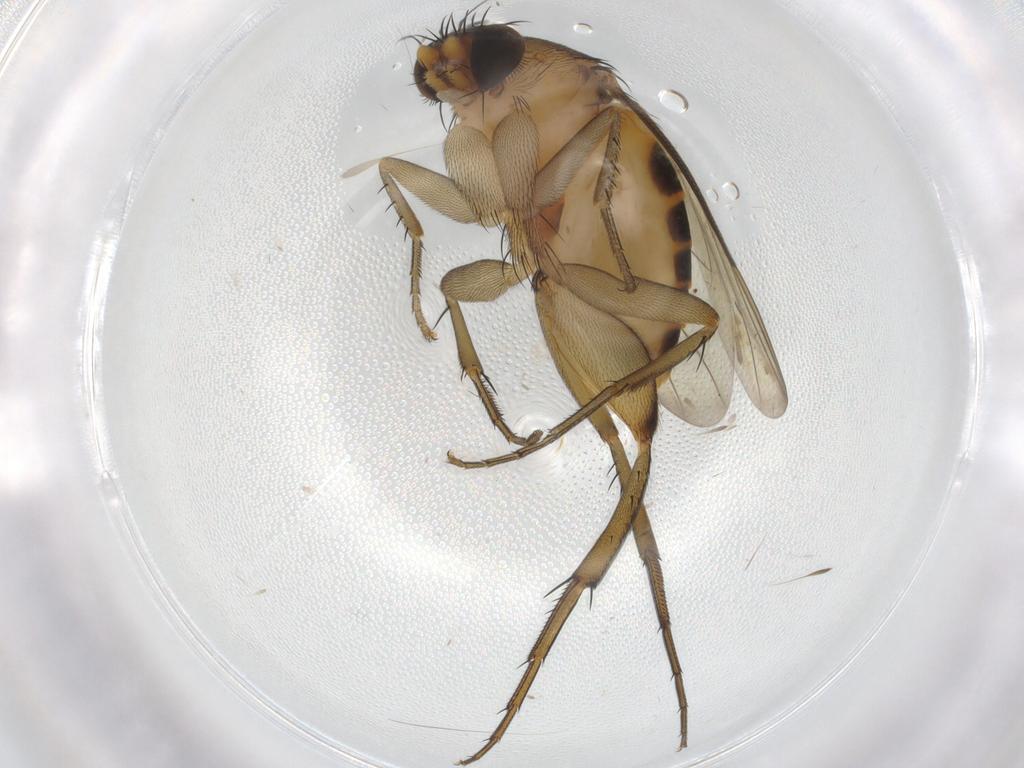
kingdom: Animalia
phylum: Arthropoda
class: Insecta
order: Diptera
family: Phoridae
